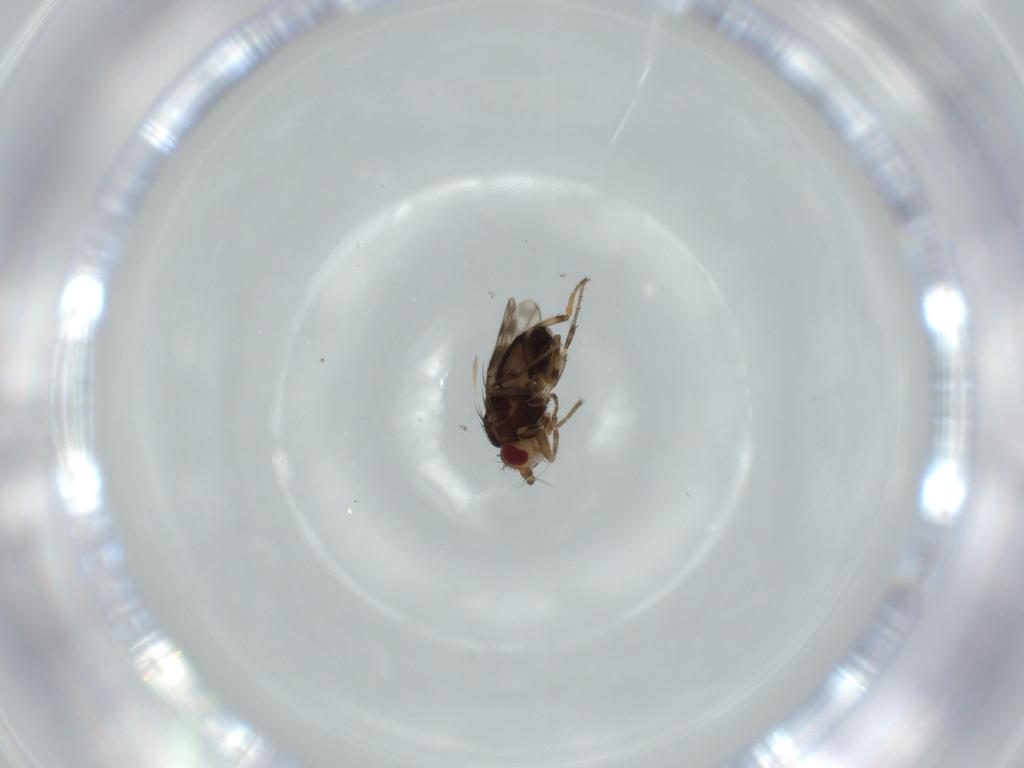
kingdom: Animalia
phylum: Arthropoda
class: Insecta
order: Diptera
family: Sphaeroceridae
